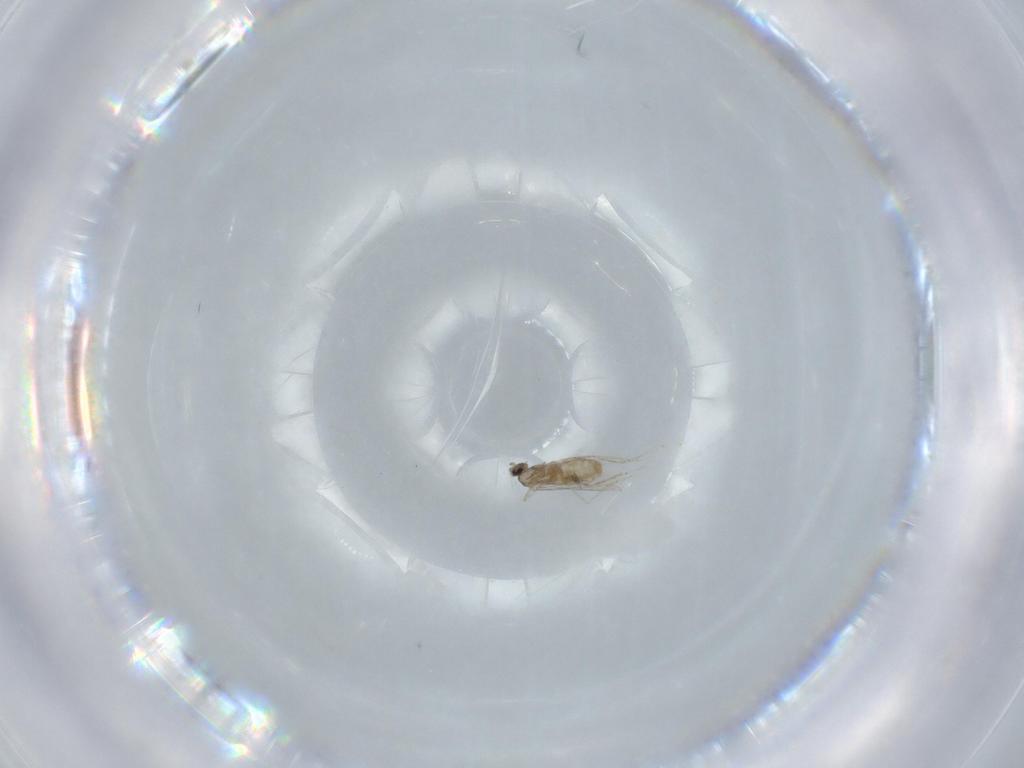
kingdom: Animalia
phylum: Arthropoda
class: Insecta
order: Diptera
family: Cecidomyiidae
